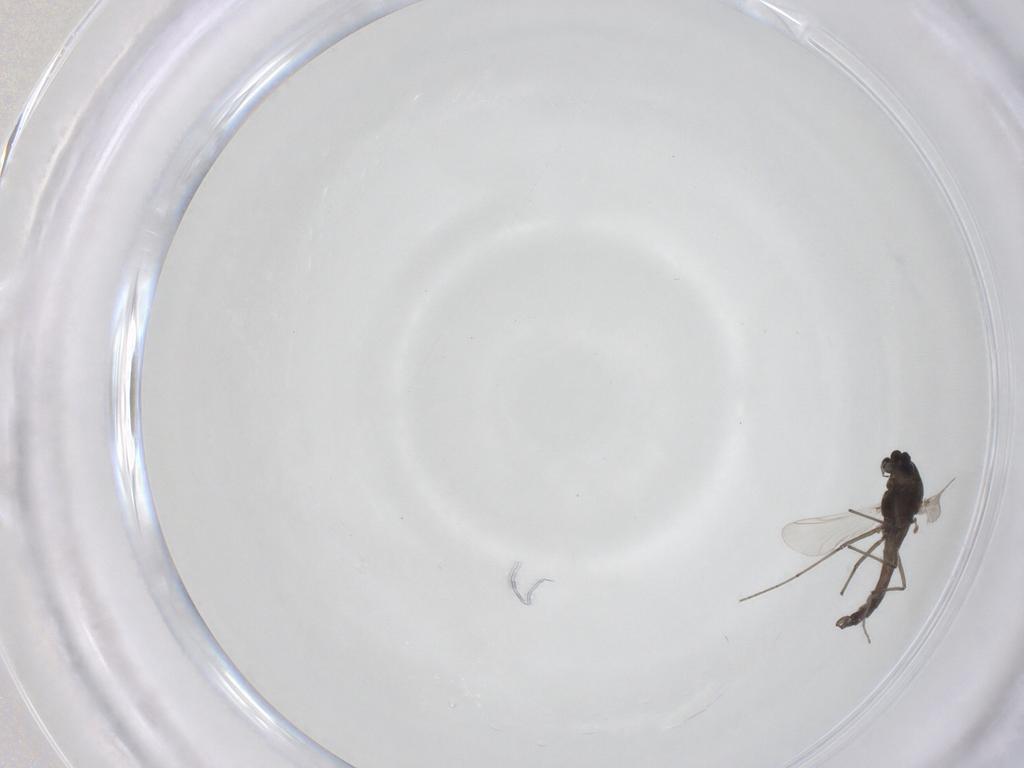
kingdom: Animalia
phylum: Arthropoda
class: Insecta
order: Diptera
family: Chironomidae
